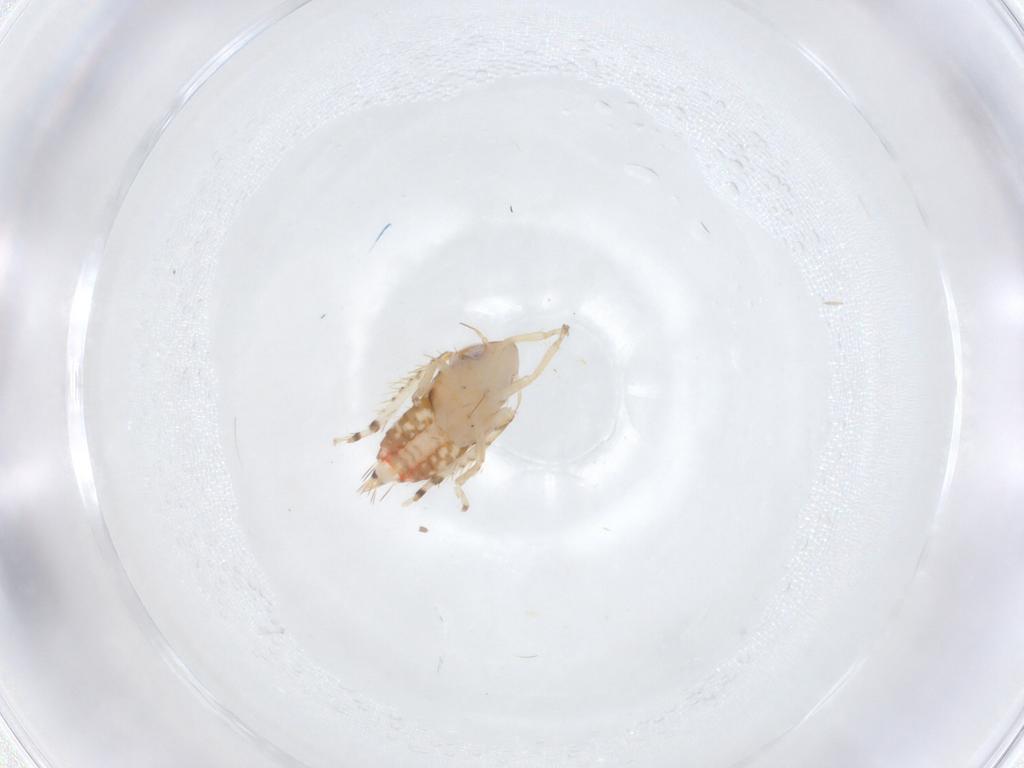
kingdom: Animalia
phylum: Arthropoda
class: Insecta
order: Hemiptera
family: Cicadellidae
